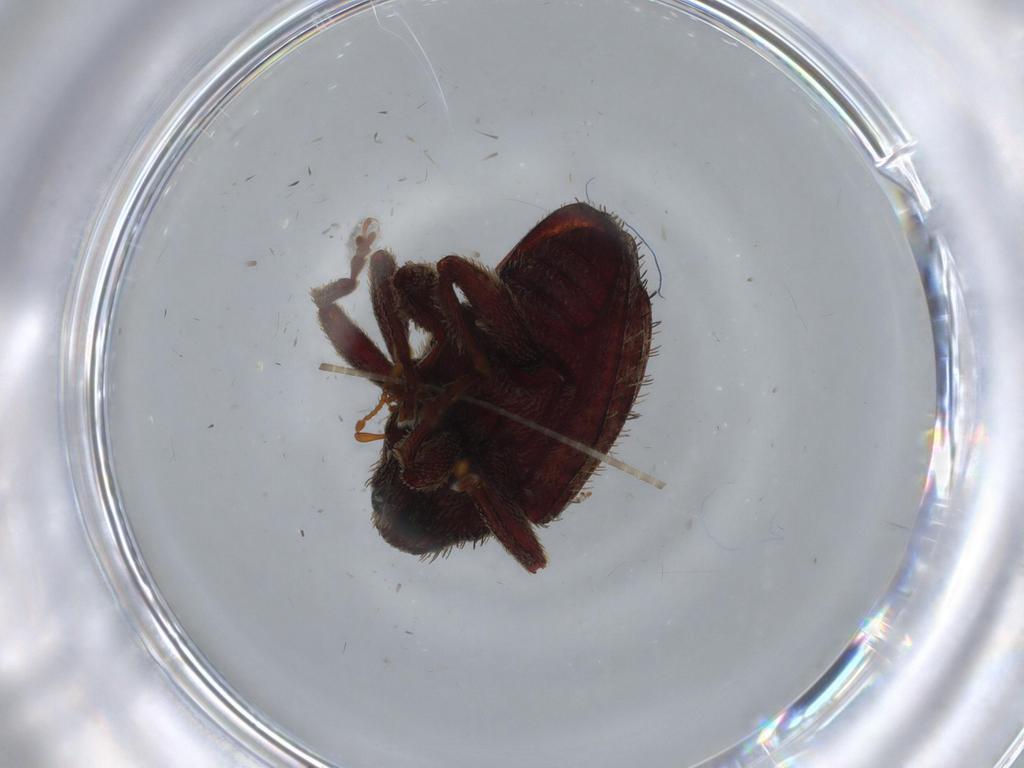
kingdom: Animalia
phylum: Arthropoda
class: Insecta
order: Coleoptera
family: Curculionidae
